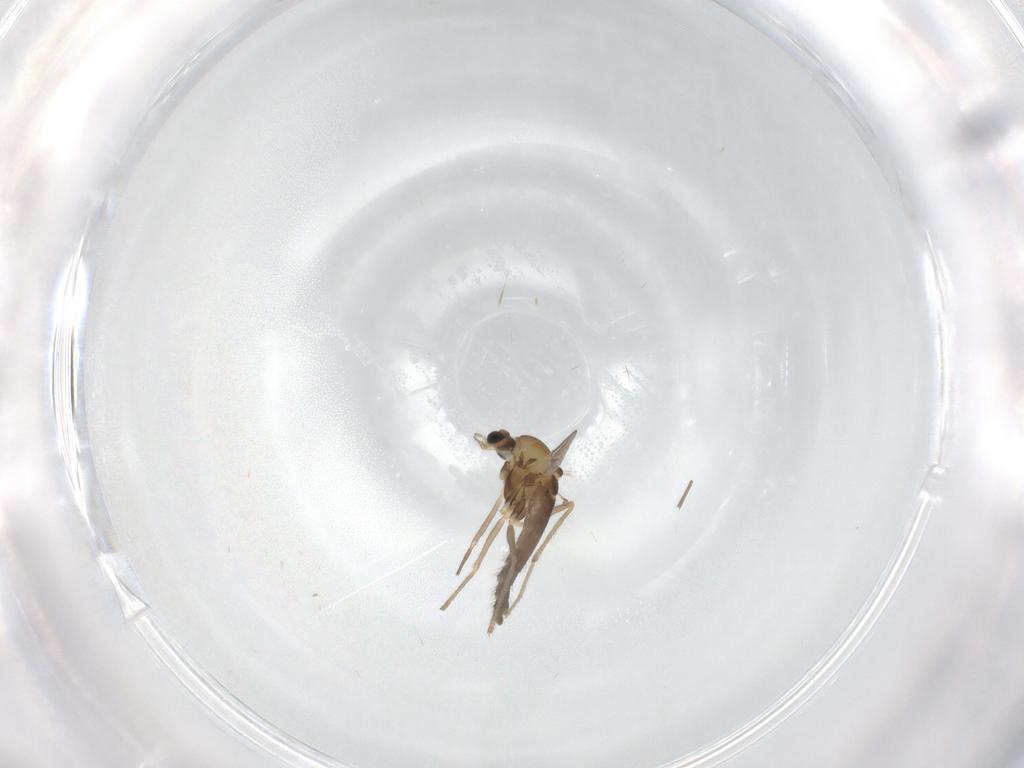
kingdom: Animalia
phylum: Arthropoda
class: Insecta
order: Diptera
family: Chironomidae
